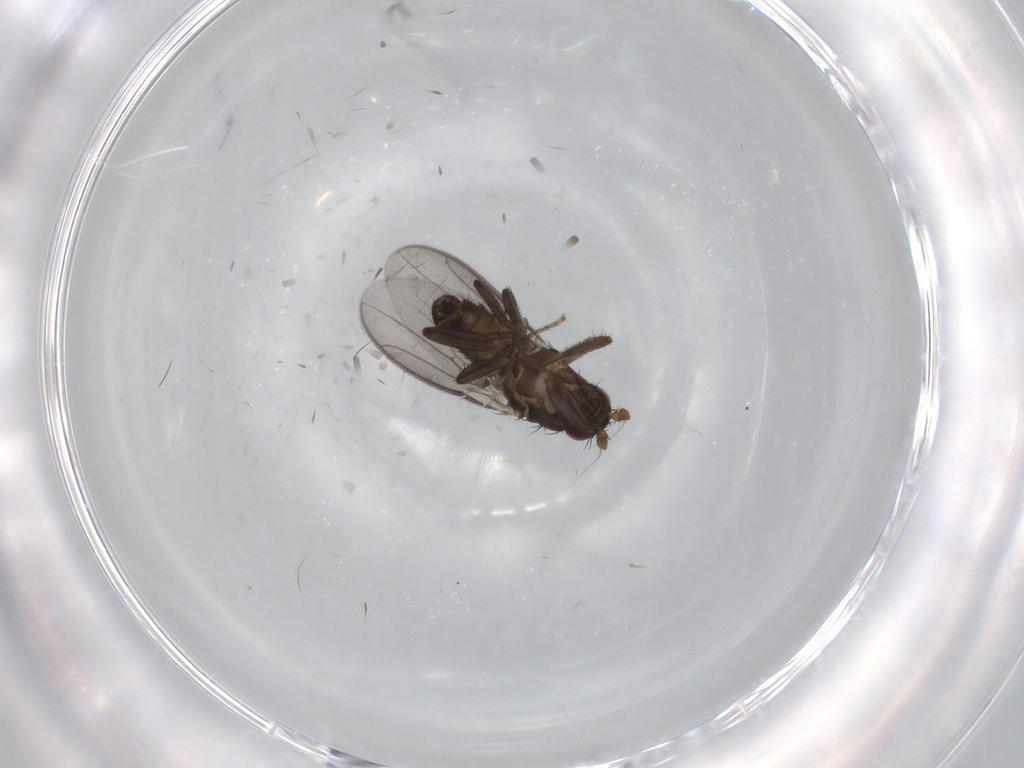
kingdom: Animalia
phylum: Arthropoda
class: Insecta
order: Diptera
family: Sphaeroceridae
